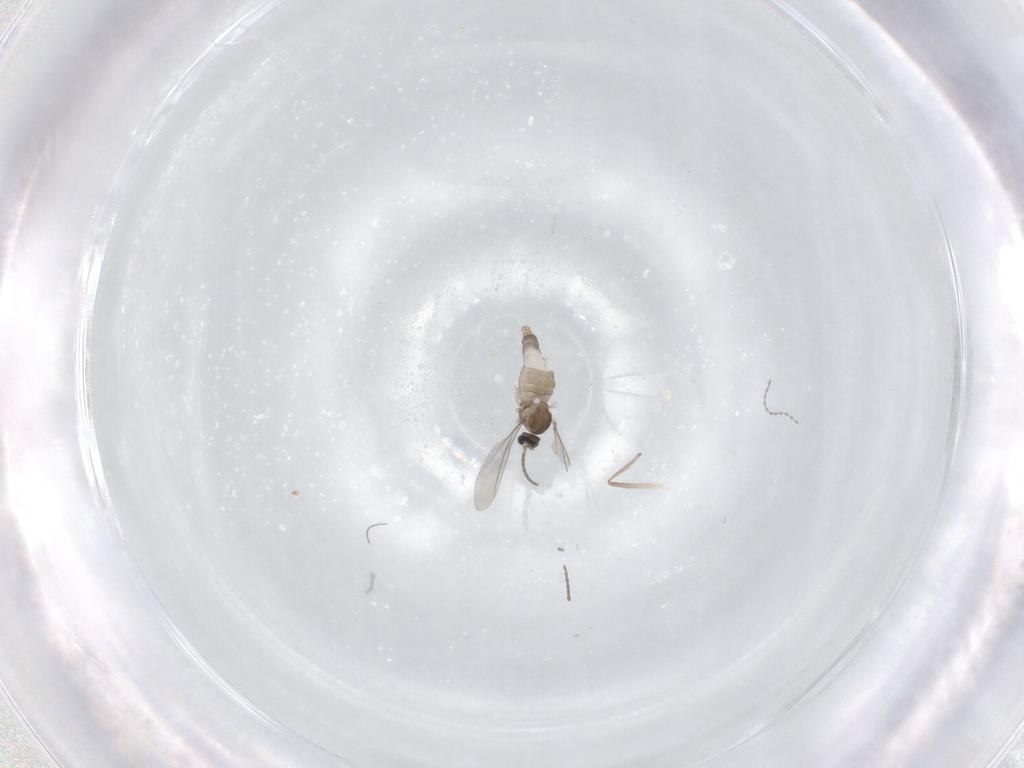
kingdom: Animalia
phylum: Arthropoda
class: Insecta
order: Diptera
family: Cecidomyiidae
